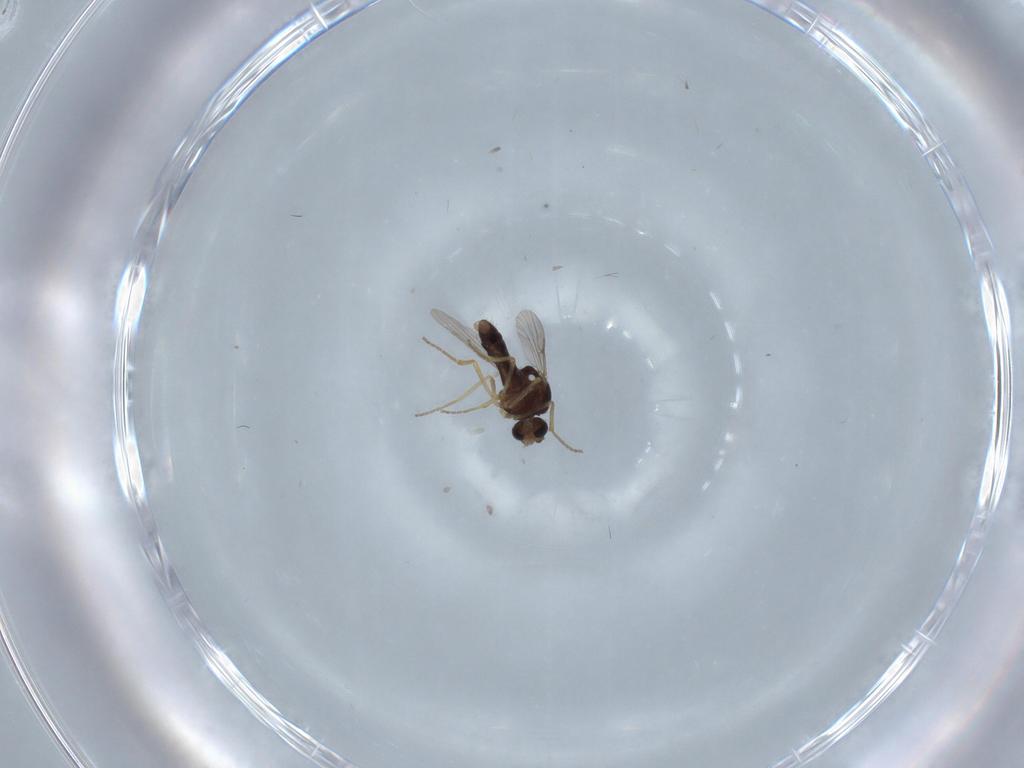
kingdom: Animalia
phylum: Arthropoda
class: Insecta
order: Diptera
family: Ceratopogonidae
